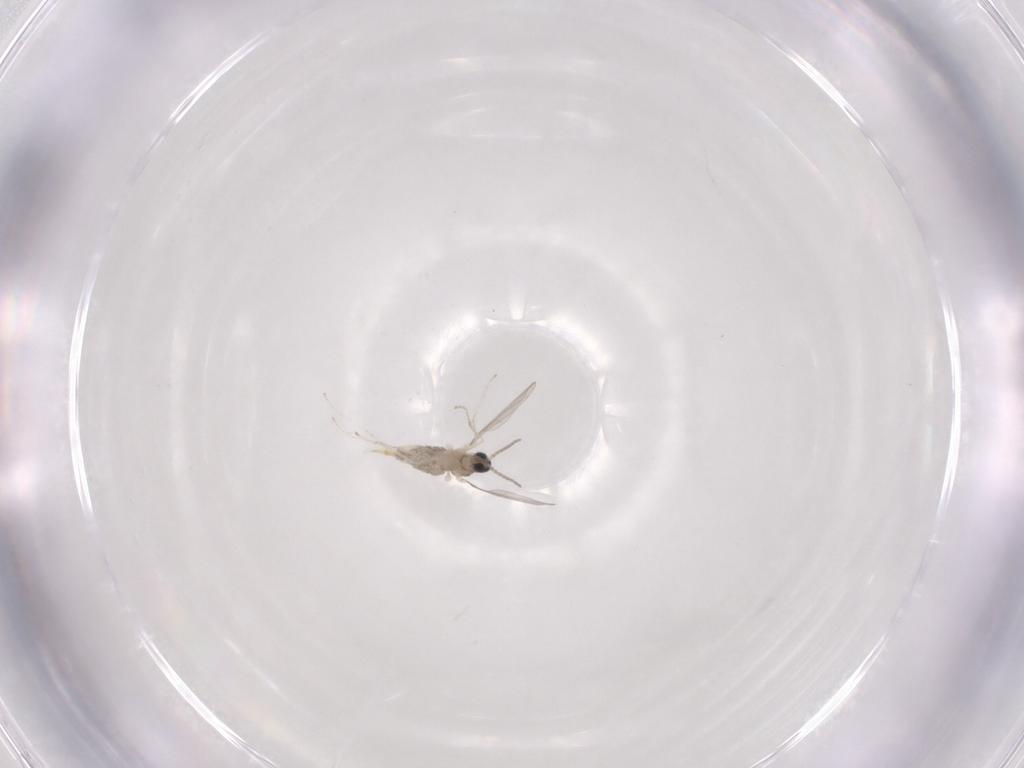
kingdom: Animalia
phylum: Arthropoda
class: Insecta
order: Diptera
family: Cecidomyiidae
